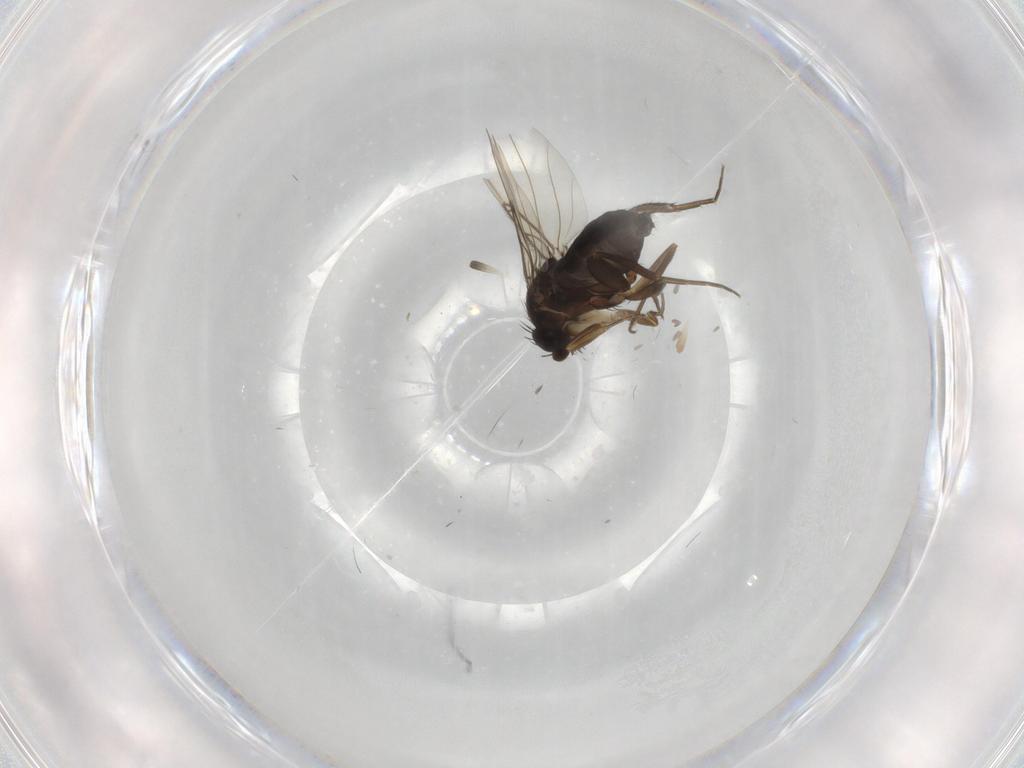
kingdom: Animalia
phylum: Arthropoda
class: Insecta
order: Diptera
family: Phoridae
